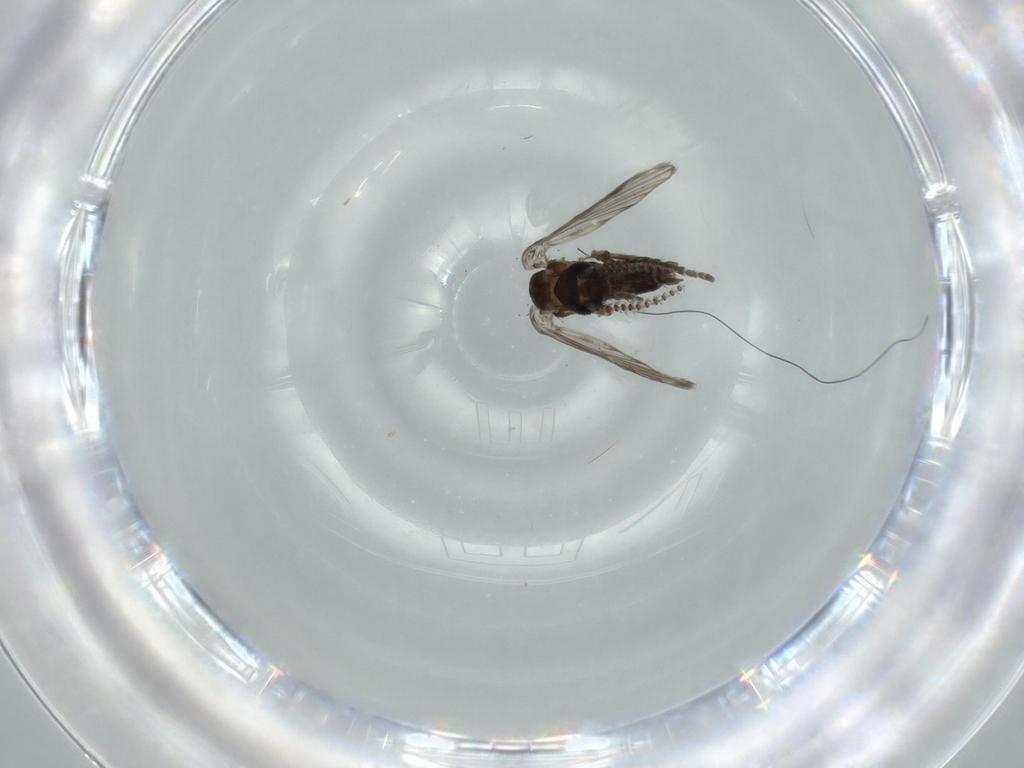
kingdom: Animalia
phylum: Arthropoda
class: Insecta
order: Diptera
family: Psychodidae
